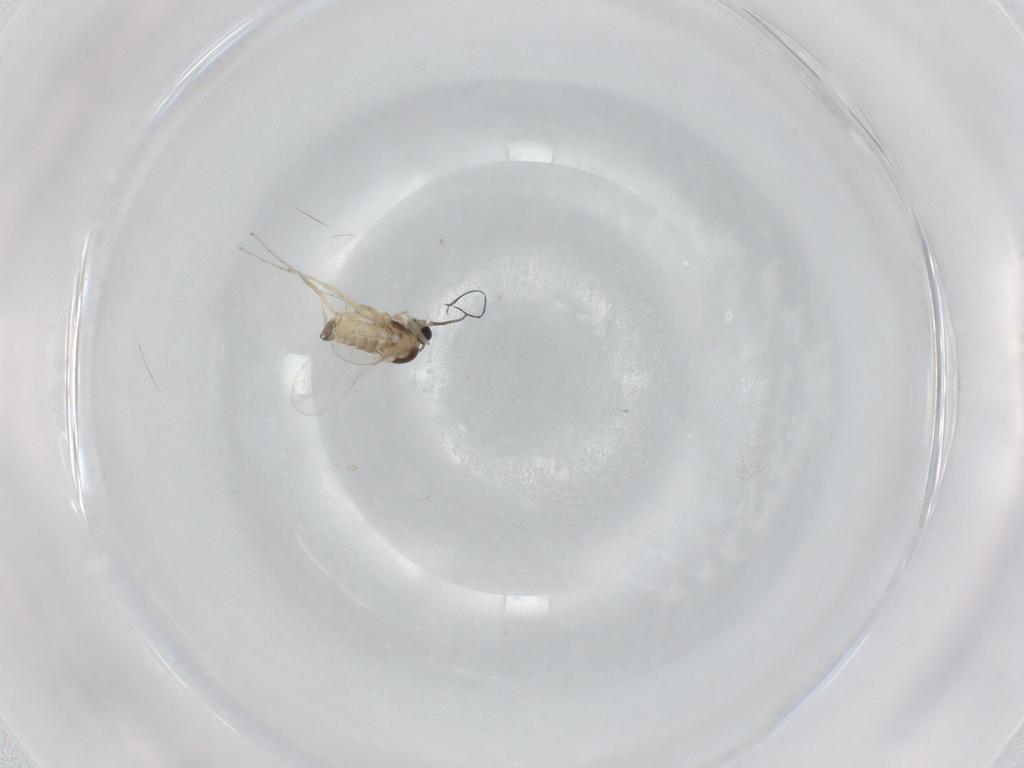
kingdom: Animalia
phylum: Arthropoda
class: Insecta
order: Diptera
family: Cecidomyiidae
